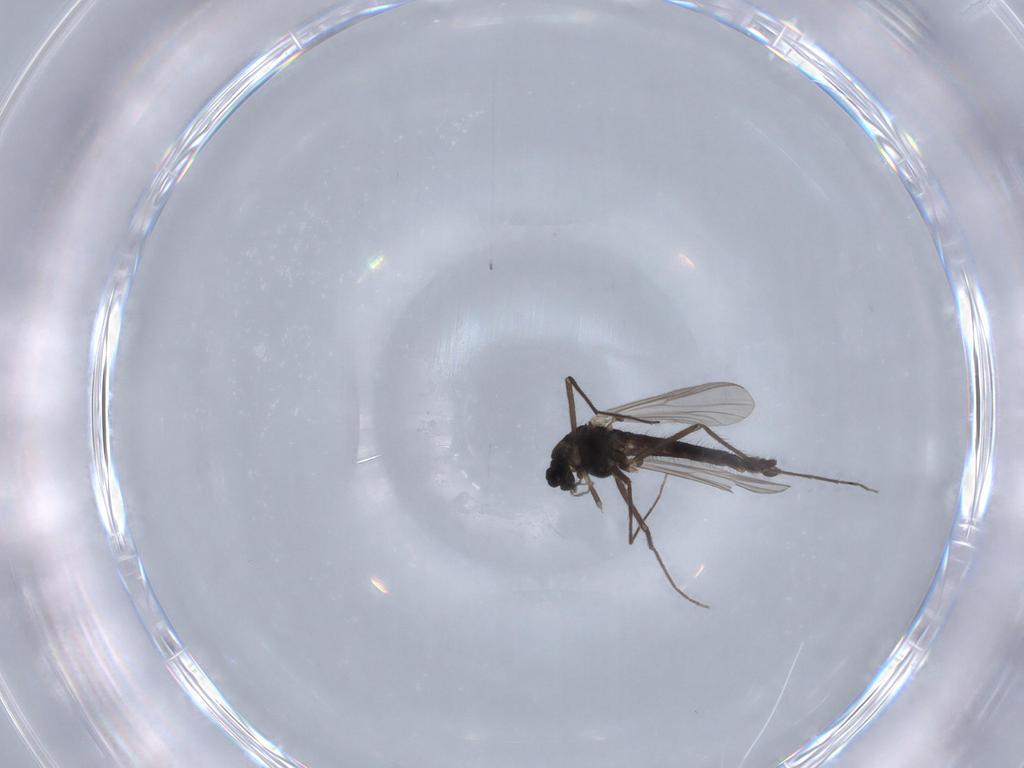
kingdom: Animalia
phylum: Arthropoda
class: Insecta
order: Diptera
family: Chironomidae
